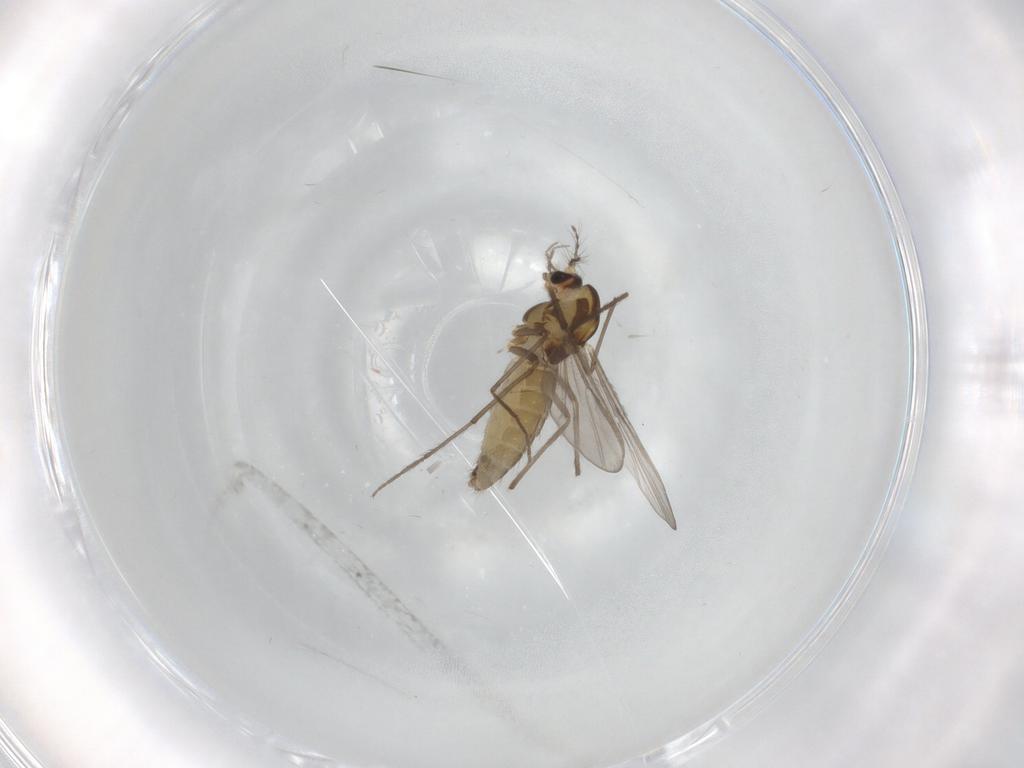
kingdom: Animalia
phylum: Arthropoda
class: Insecta
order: Diptera
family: Chironomidae
